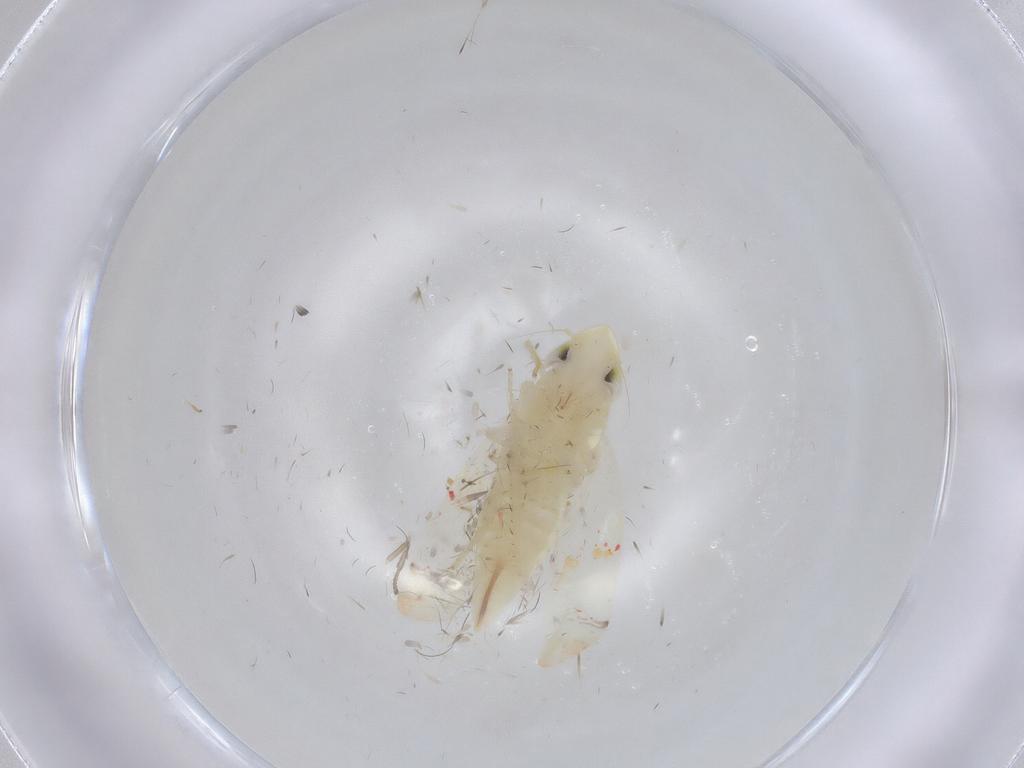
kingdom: Animalia
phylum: Arthropoda
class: Insecta
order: Hemiptera
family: Cicadellidae
